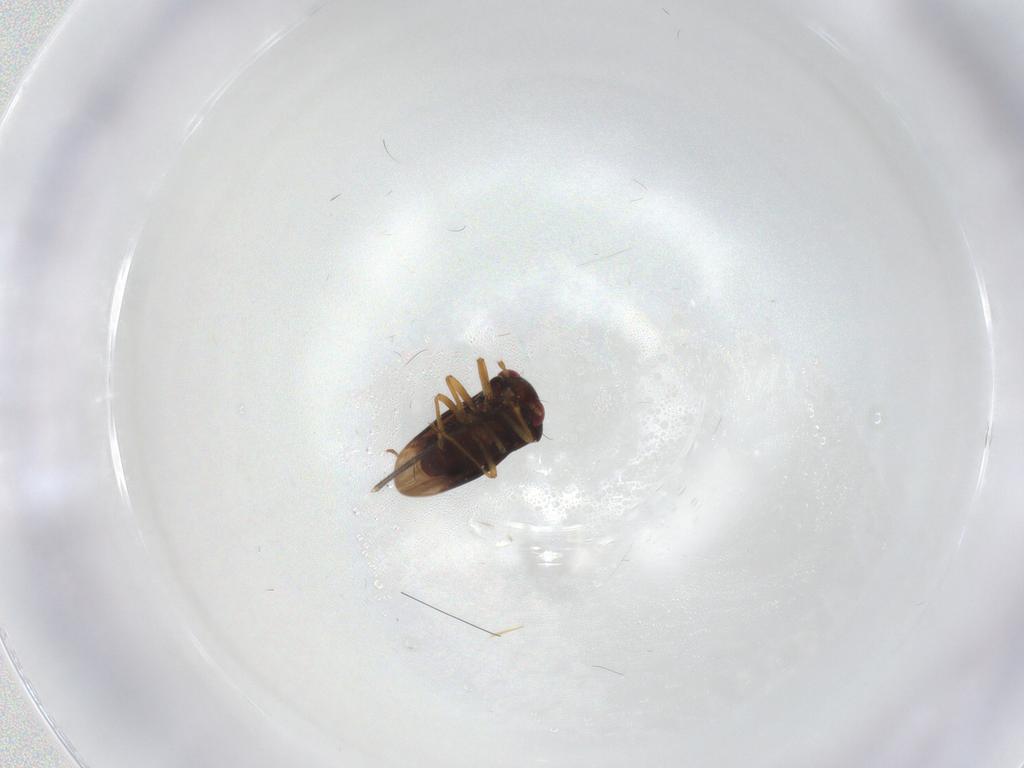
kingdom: Animalia
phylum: Arthropoda
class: Insecta
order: Hemiptera
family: Schizopteridae
